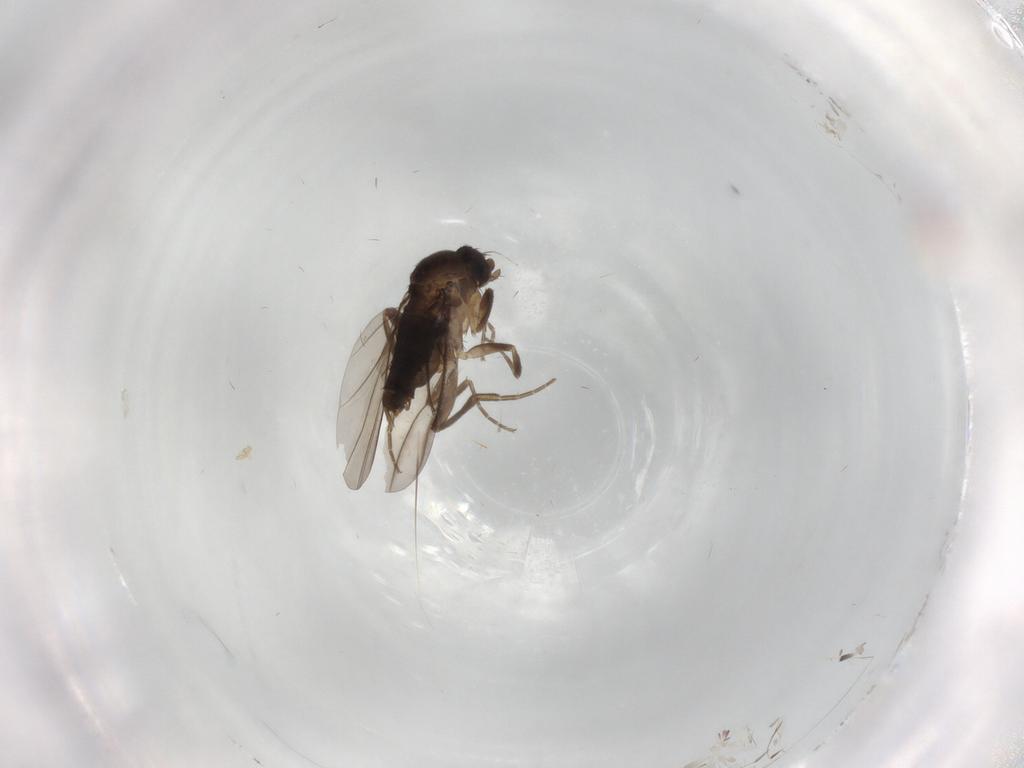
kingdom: Animalia
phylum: Arthropoda
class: Insecta
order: Diptera
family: Phoridae
